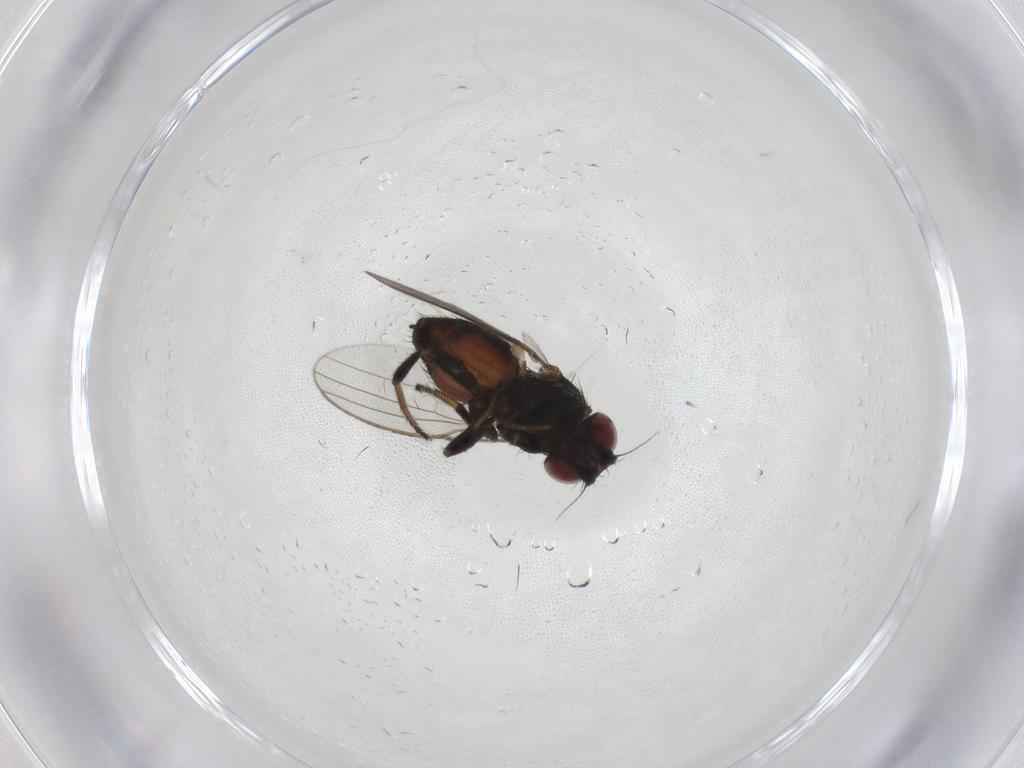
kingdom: Animalia
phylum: Arthropoda
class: Insecta
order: Diptera
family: Milichiidae
